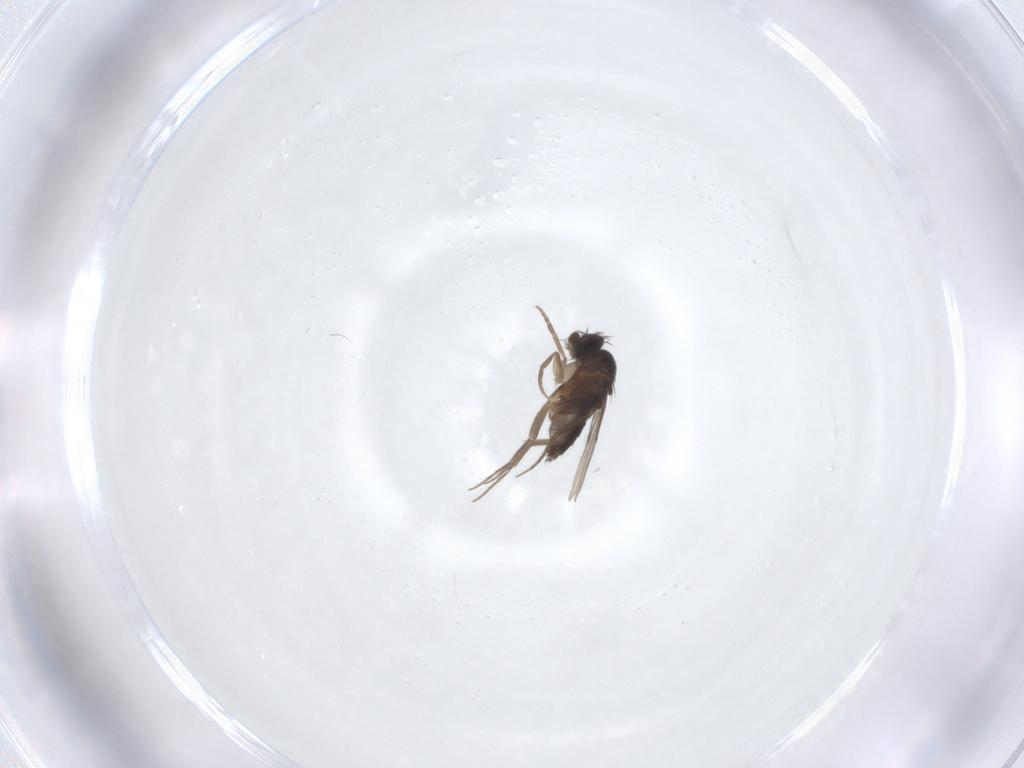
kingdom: Animalia
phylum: Arthropoda
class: Insecta
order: Diptera
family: Phoridae
